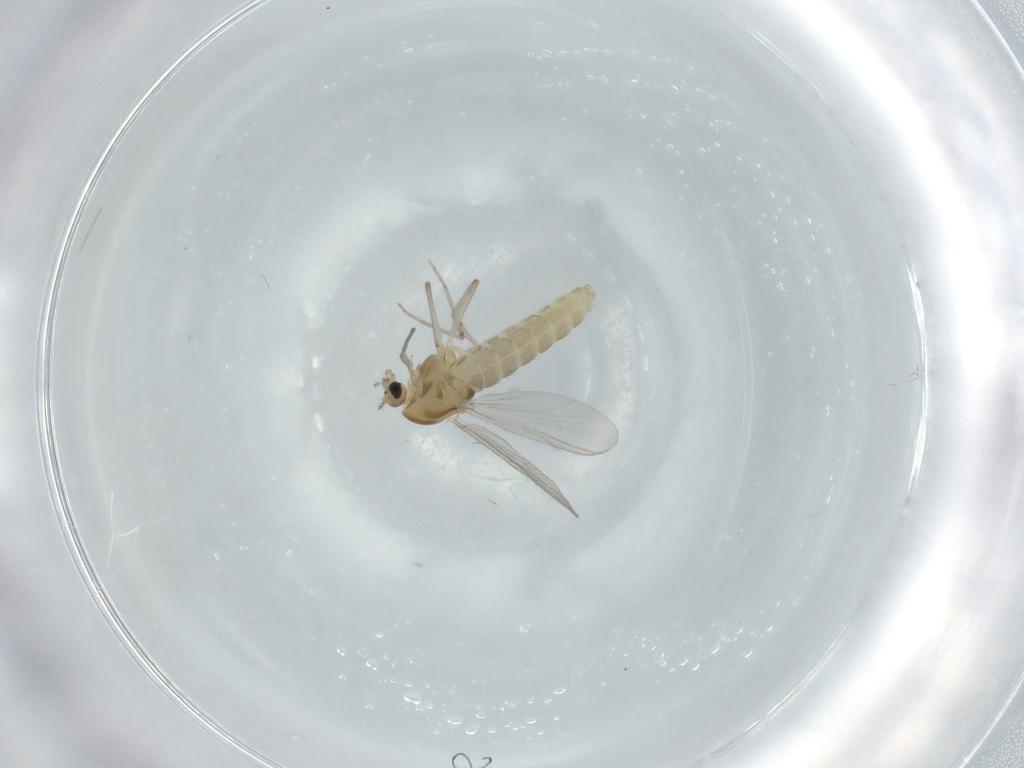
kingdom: Animalia
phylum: Arthropoda
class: Insecta
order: Diptera
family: Chironomidae
